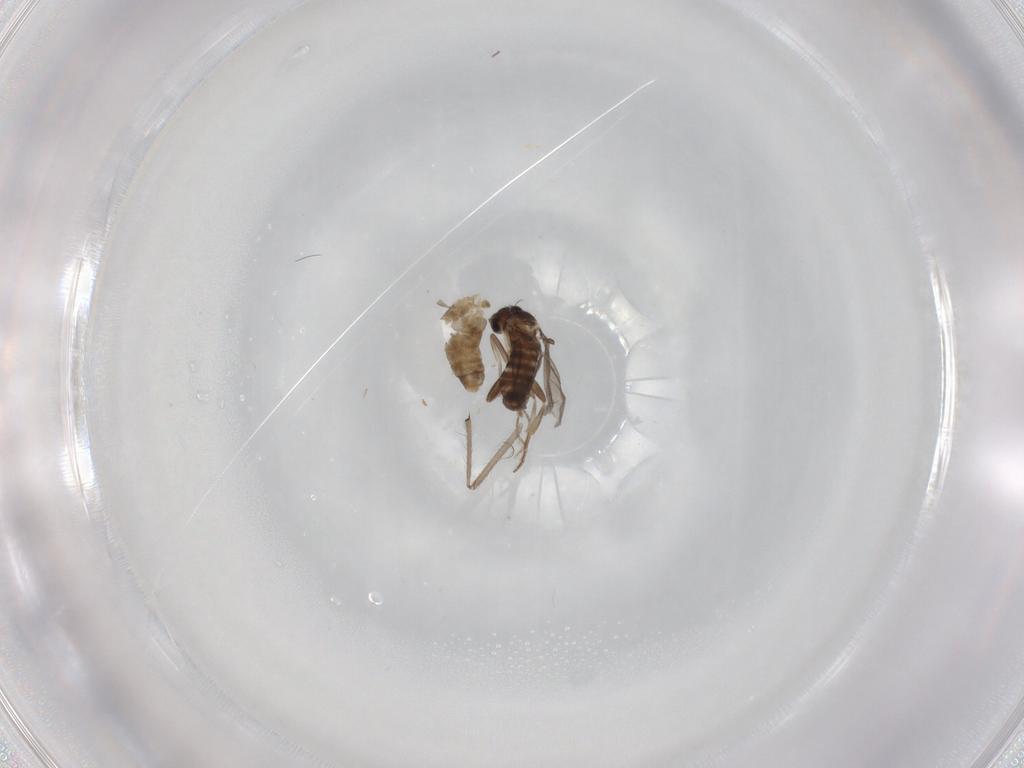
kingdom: Animalia
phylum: Arthropoda
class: Insecta
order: Diptera
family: Chironomidae
